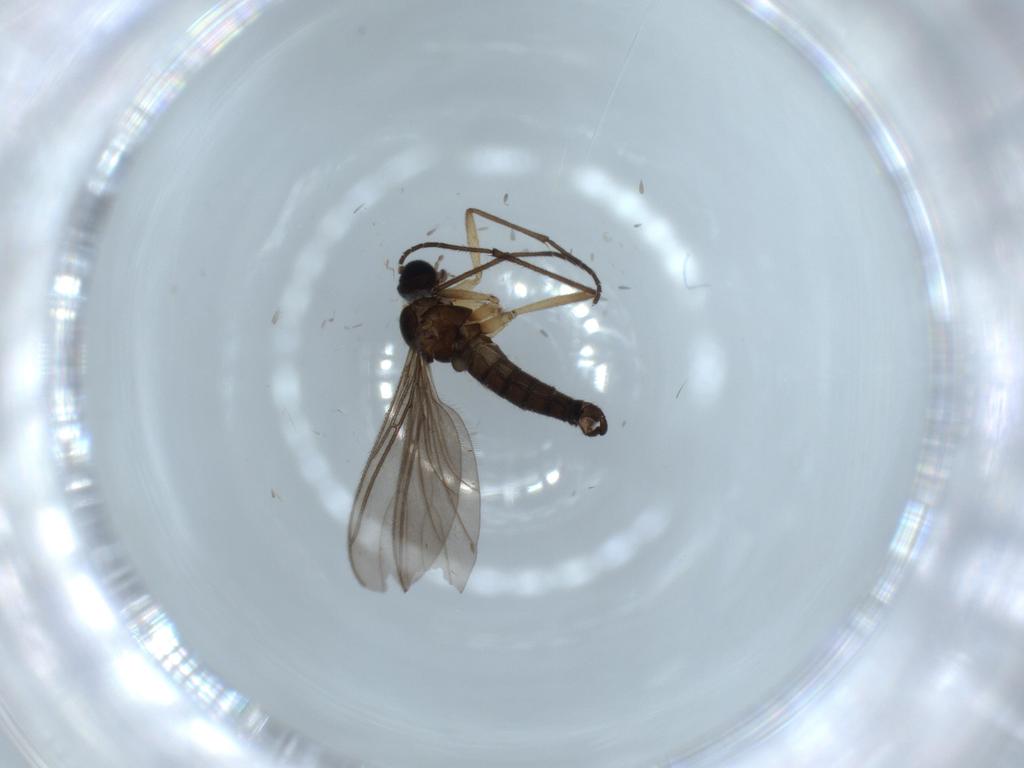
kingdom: Animalia
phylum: Arthropoda
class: Insecta
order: Diptera
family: Sciaridae
